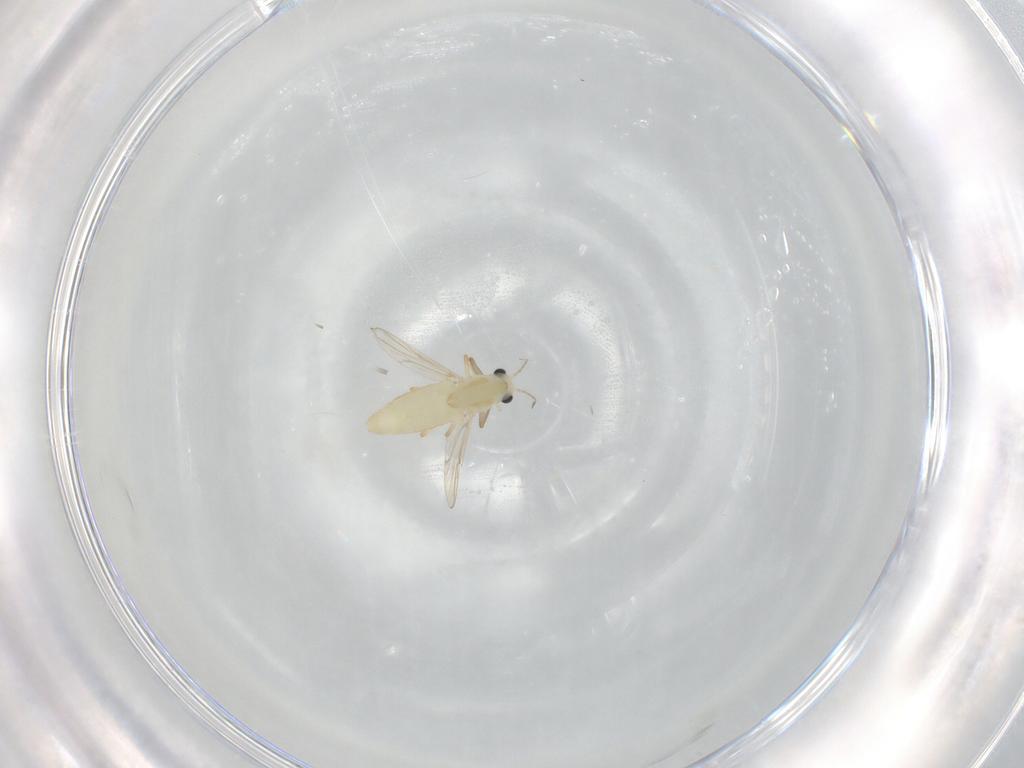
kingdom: Animalia
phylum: Arthropoda
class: Insecta
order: Diptera
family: Chironomidae
